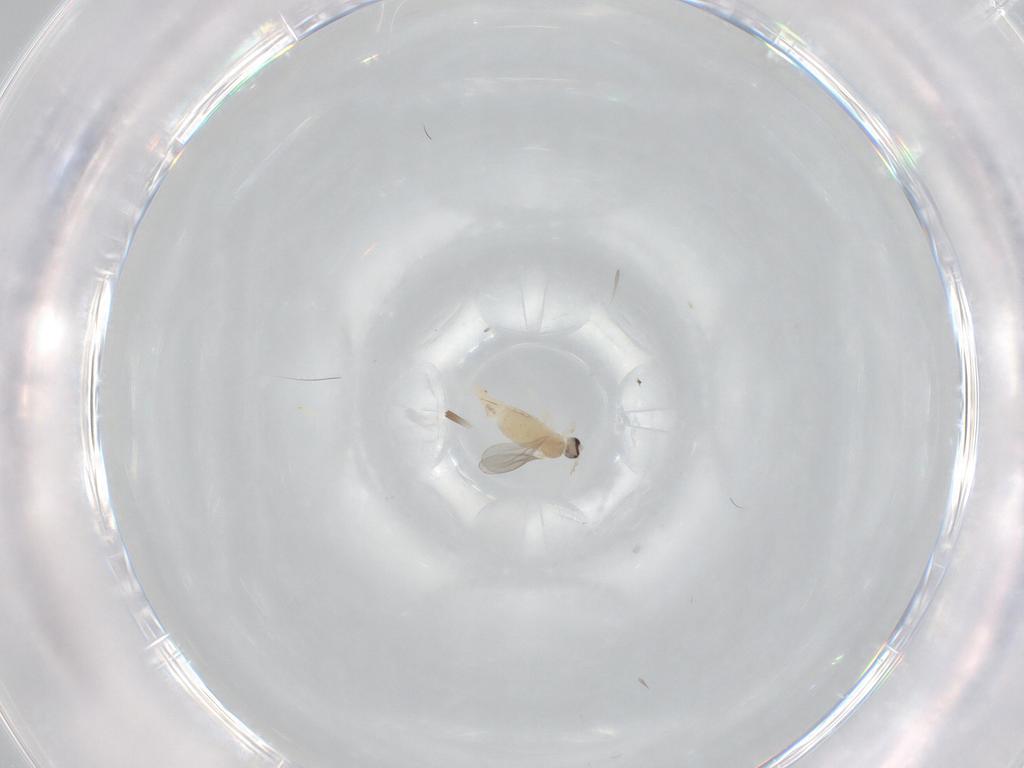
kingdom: Animalia
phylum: Arthropoda
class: Insecta
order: Diptera
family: Cecidomyiidae
